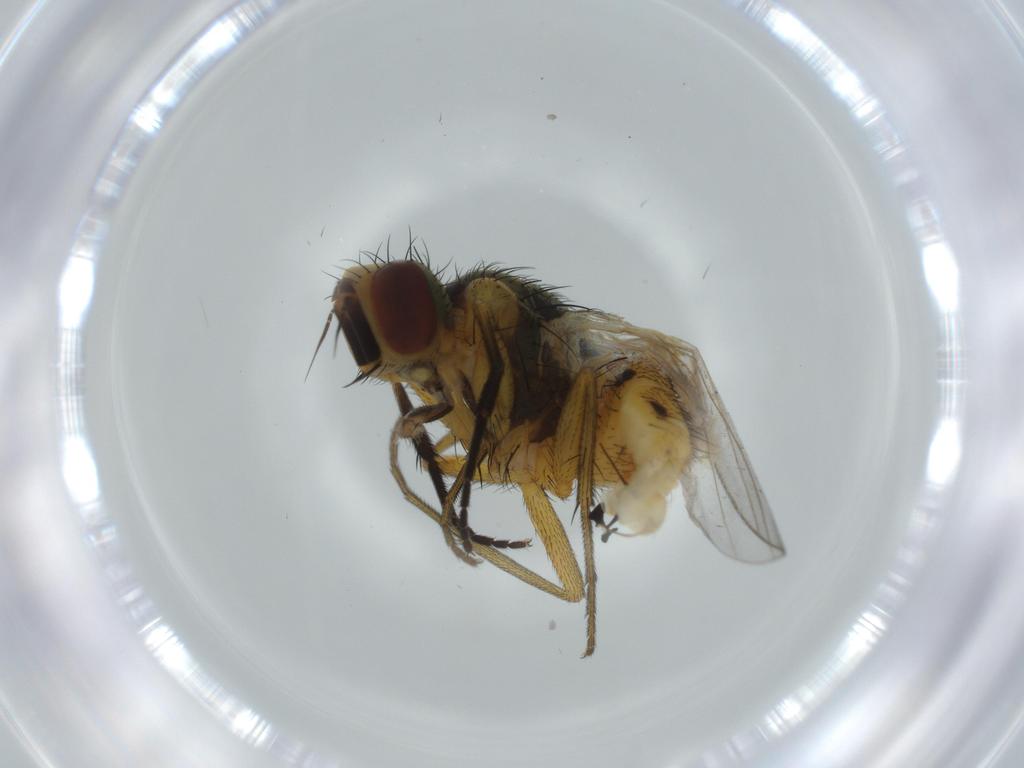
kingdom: Animalia
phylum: Arthropoda
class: Insecta
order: Diptera
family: Muscidae
